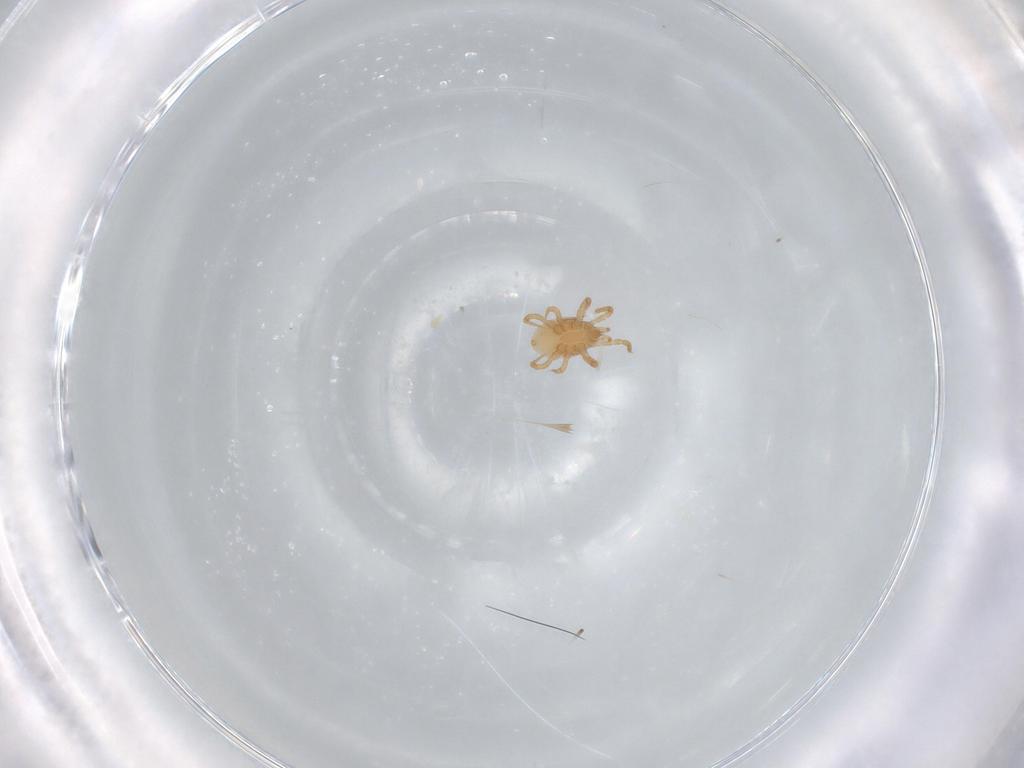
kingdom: Animalia
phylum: Arthropoda
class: Arachnida
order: Mesostigmata
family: Parasitidae
